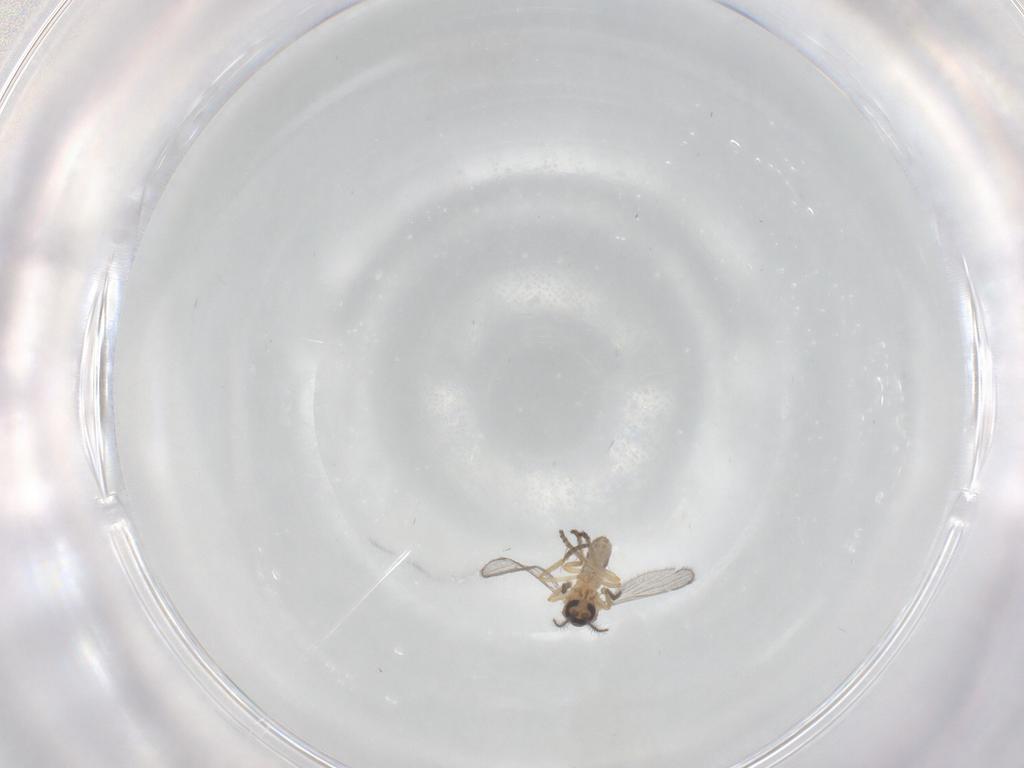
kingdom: Animalia
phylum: Arthropoda
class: Insecta
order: Diptera
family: Ceratopogonidae
